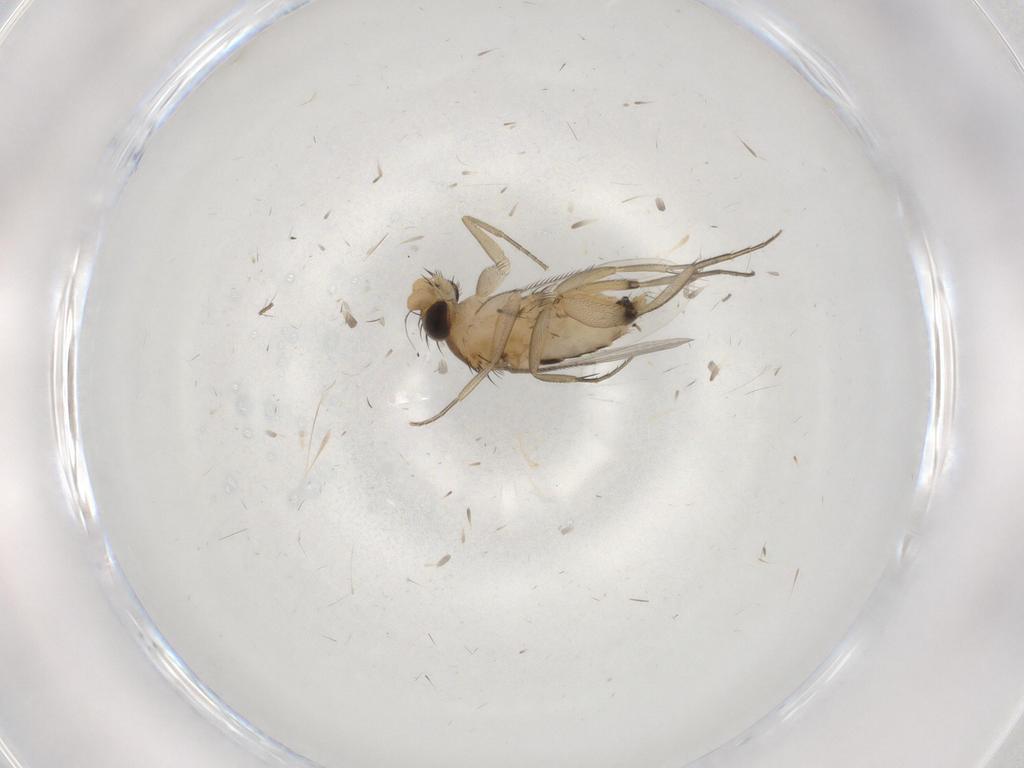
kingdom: Animalia
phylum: Arthropoda
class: Insecta
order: Diptera
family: Phoridae
